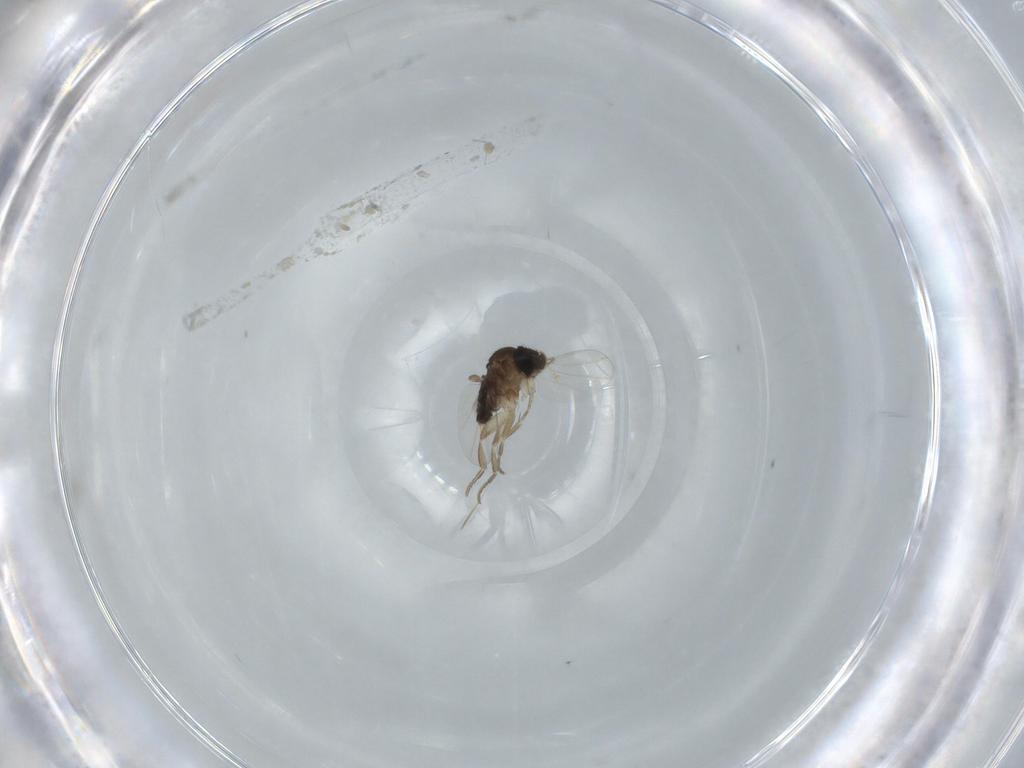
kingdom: Animalia
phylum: Arthropoda
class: Insecta
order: Diptera
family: Phoridae
